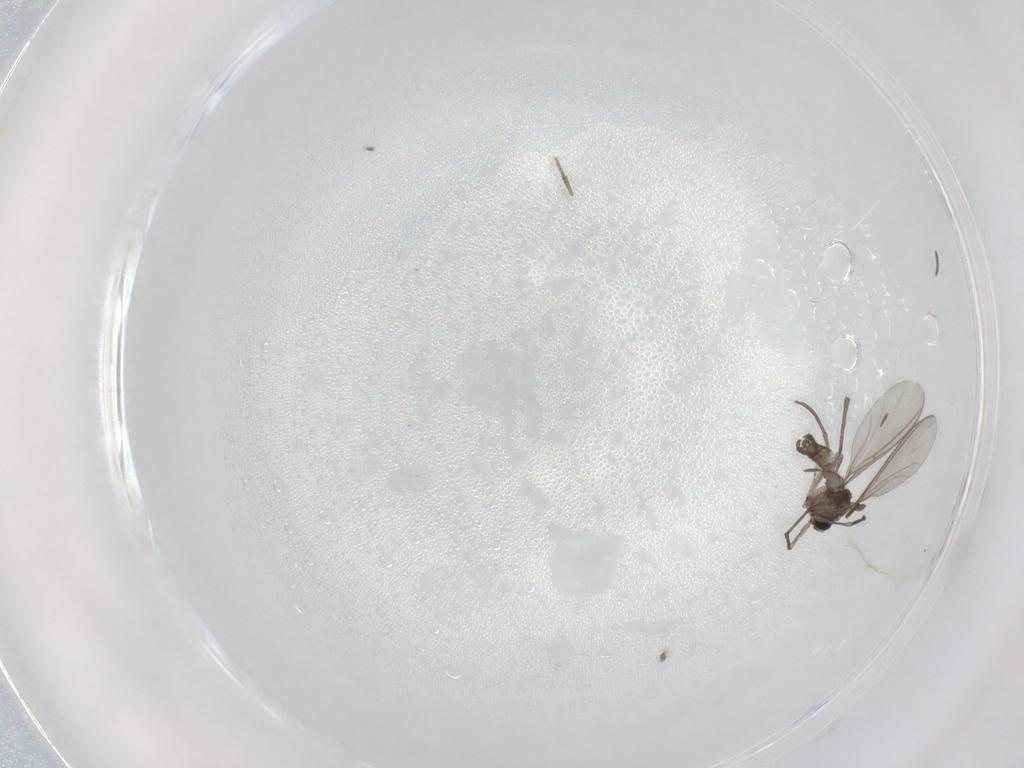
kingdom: Animalia
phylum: Arthropoda
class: Insecta
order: Diptera
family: Sciaridae
